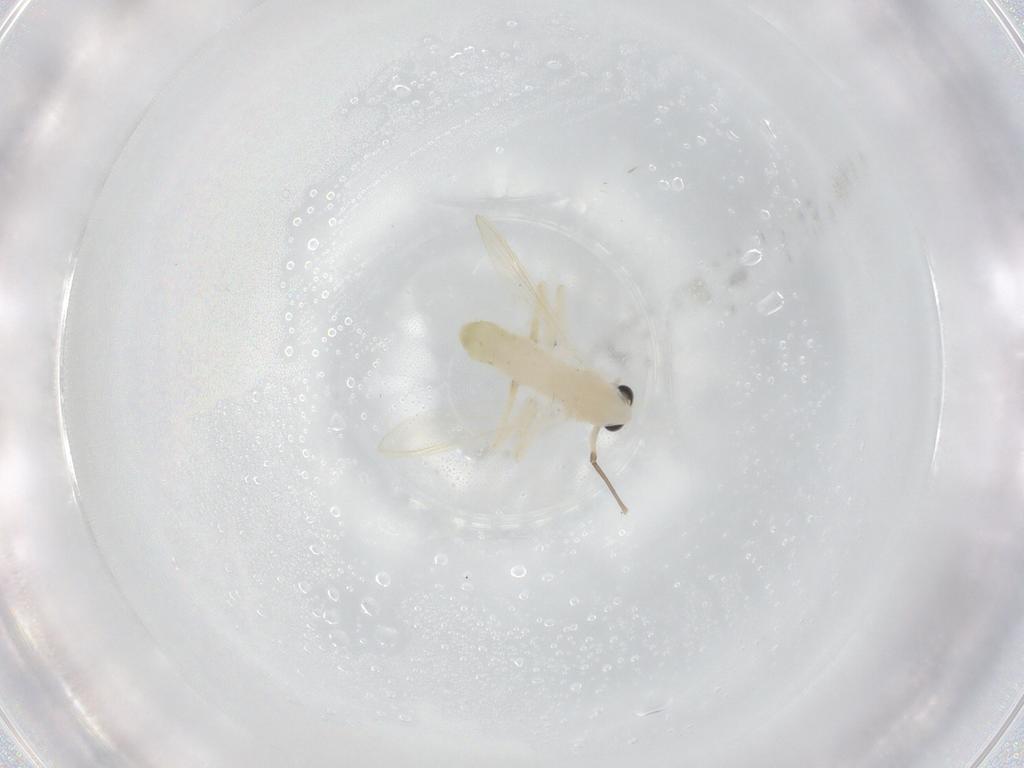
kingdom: Animalia
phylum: Arthropoda
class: Insecta
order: Diptera
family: Chironomidae
